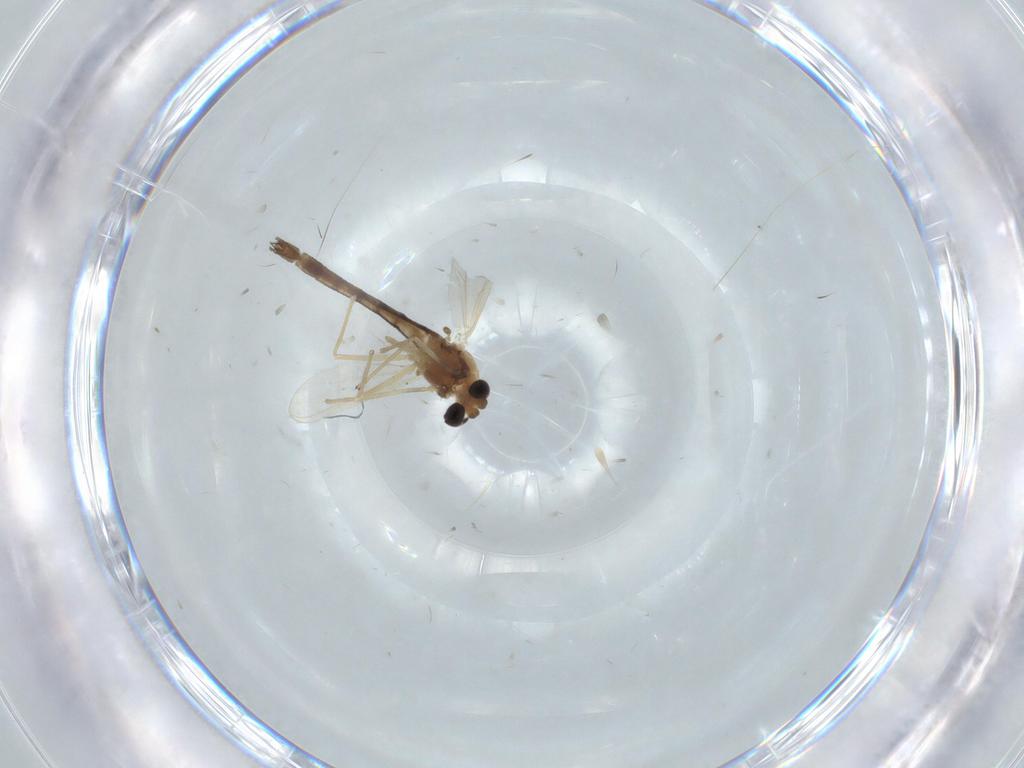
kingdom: Animalia
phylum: Arthropoda
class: Insecta
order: Diptera
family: Chironomidae
